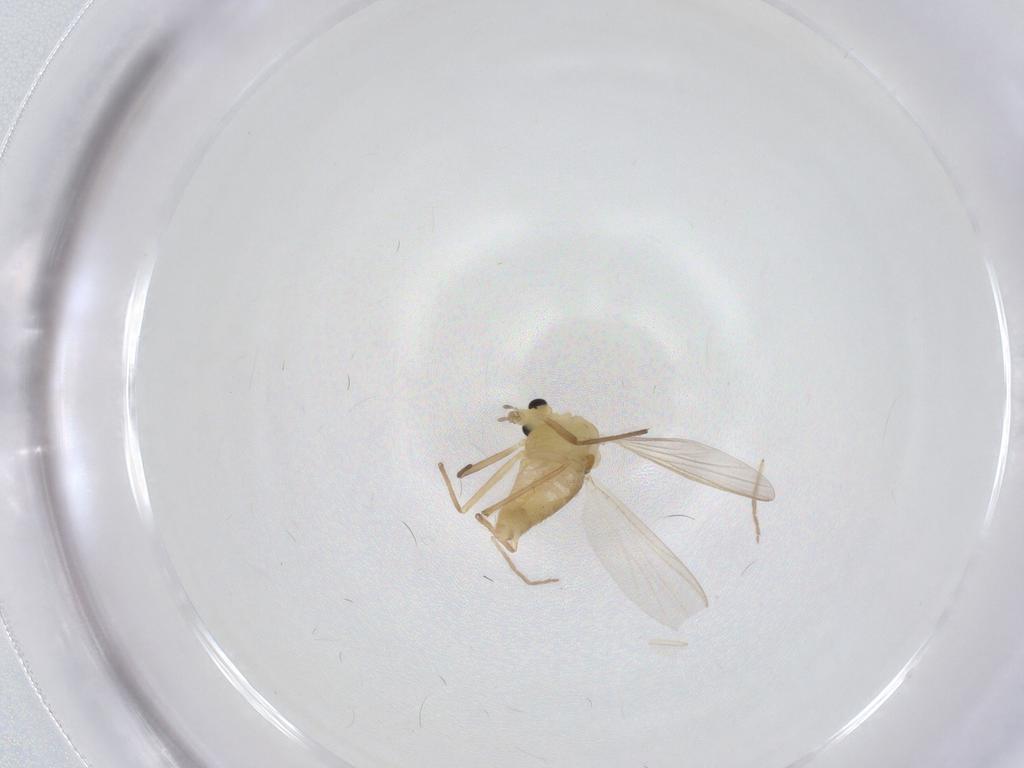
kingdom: Animalia
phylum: Arthropoda
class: Insecta
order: Diptera
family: Chironomidae
